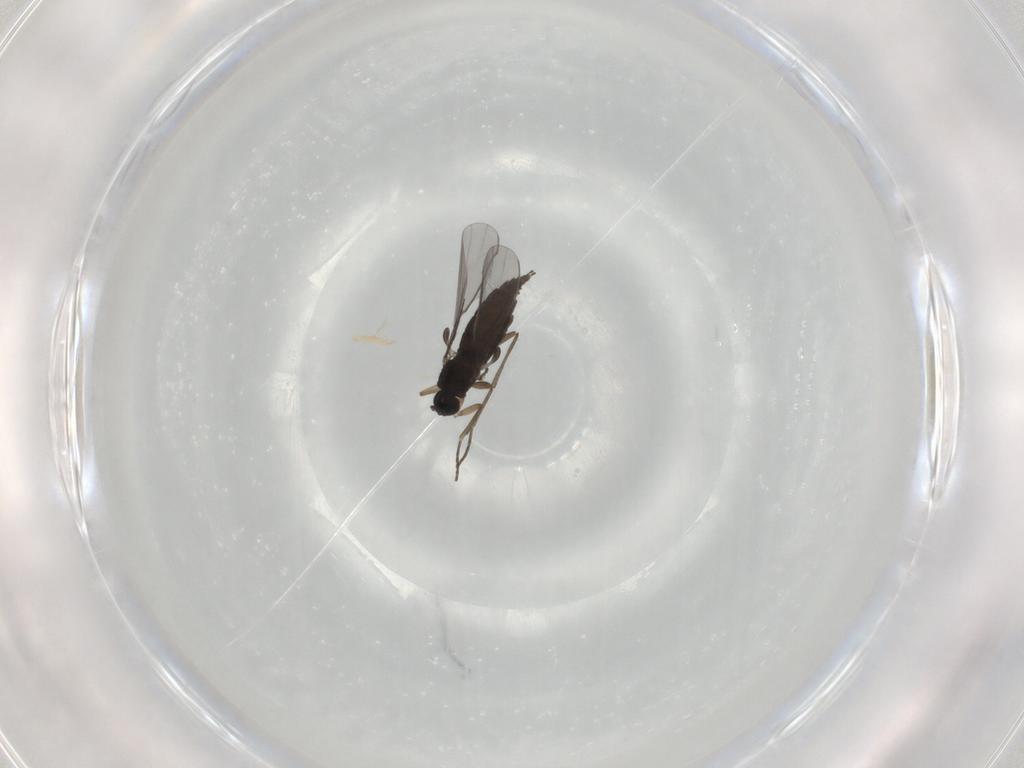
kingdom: Animalia
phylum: Arthropoda
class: Insecta
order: Diptera
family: Sciaridae
